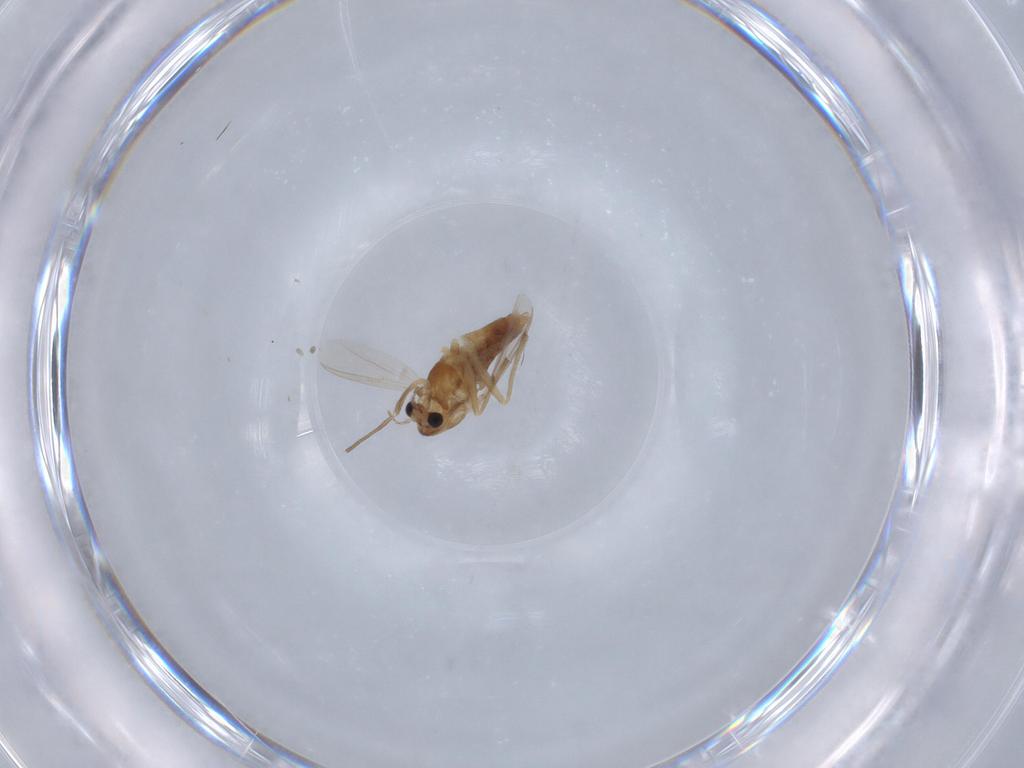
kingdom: Animalia
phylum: Arthropoda
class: Insecta
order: Diptera
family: Chironomidae
